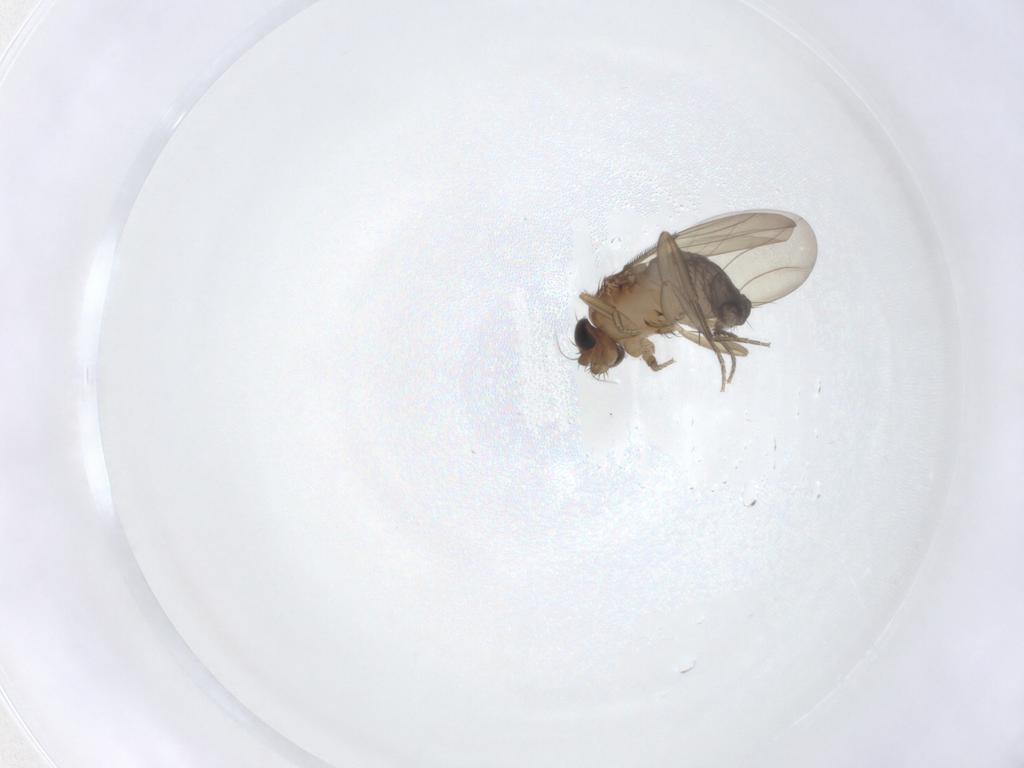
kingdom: Animalia
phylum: Arthropoda
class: Insecta
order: Diptera
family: Phoridae
